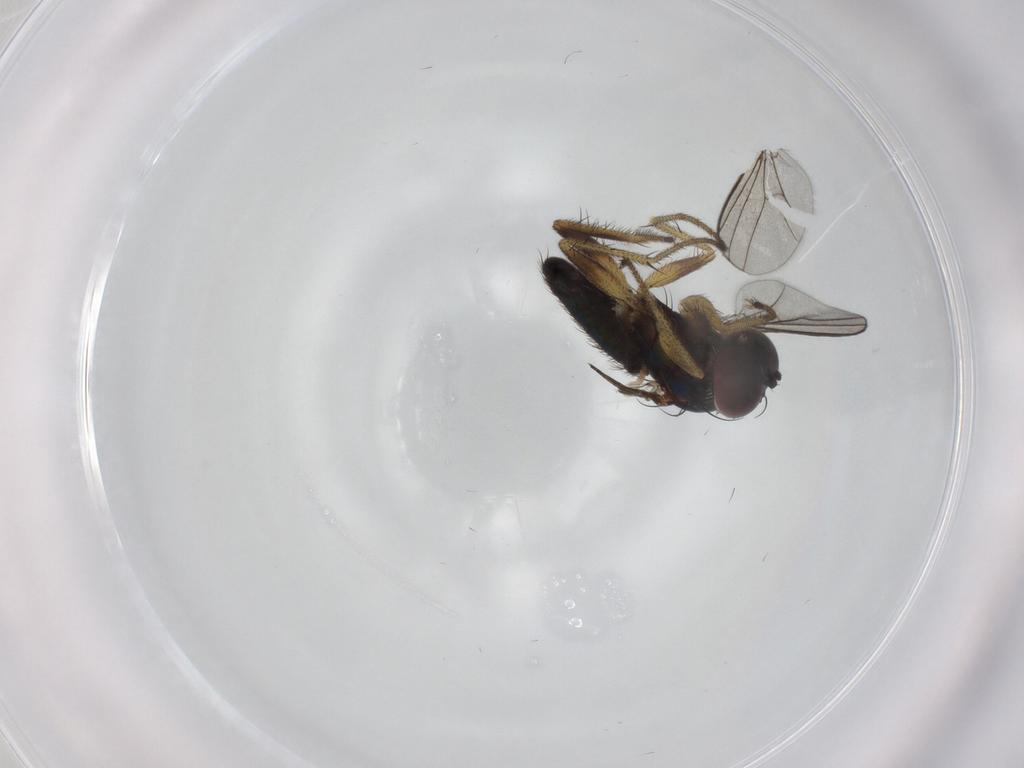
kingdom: Animalia
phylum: Arthropoda
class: Insecta
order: Diptera
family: Dolichopodidae
